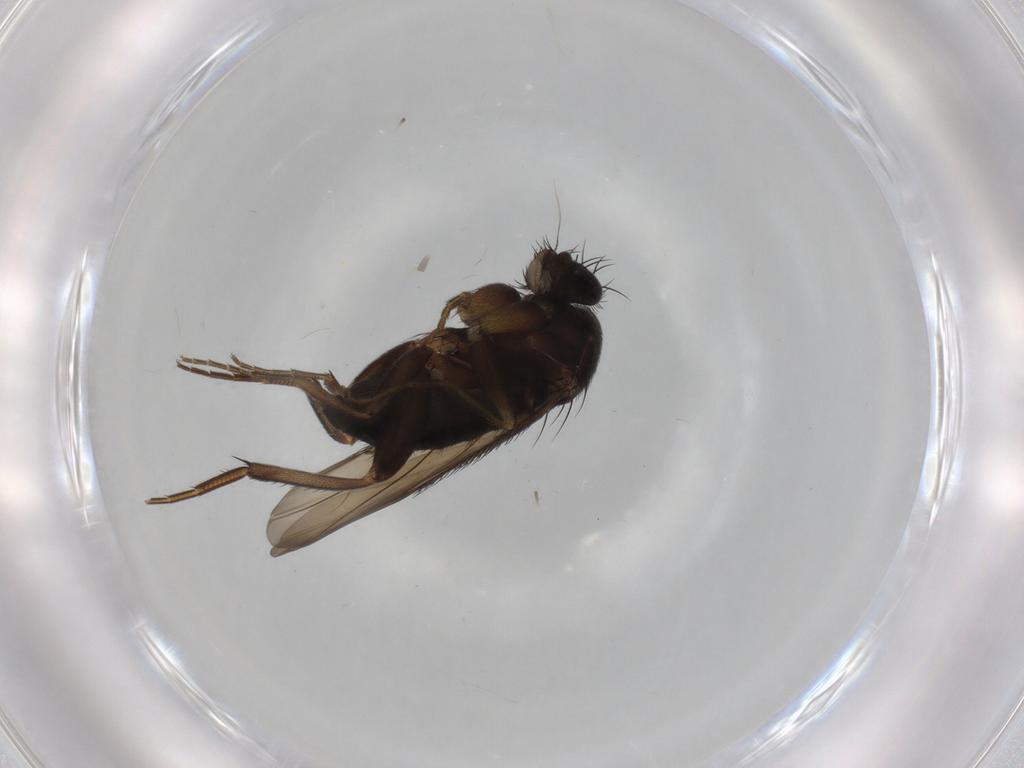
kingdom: Animalia
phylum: Arthropoda
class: Insecta
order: Diptera
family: Phoridae
